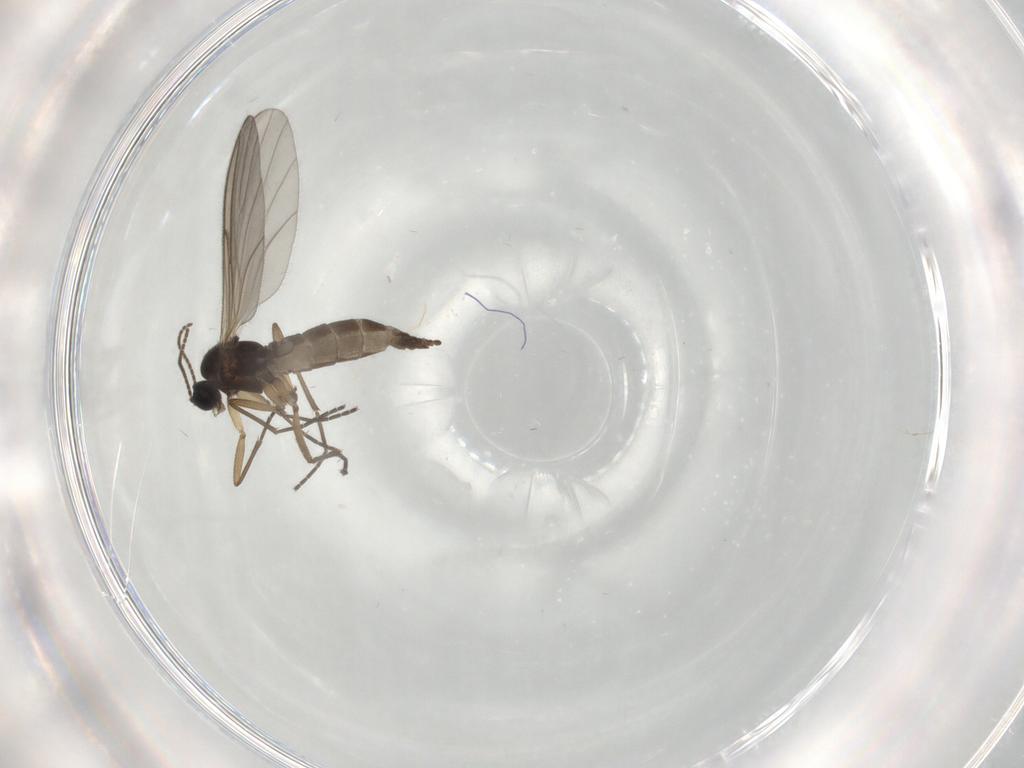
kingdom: Animalia
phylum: Arthropoda
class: Insecta
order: Diptera
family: Sciaridae
